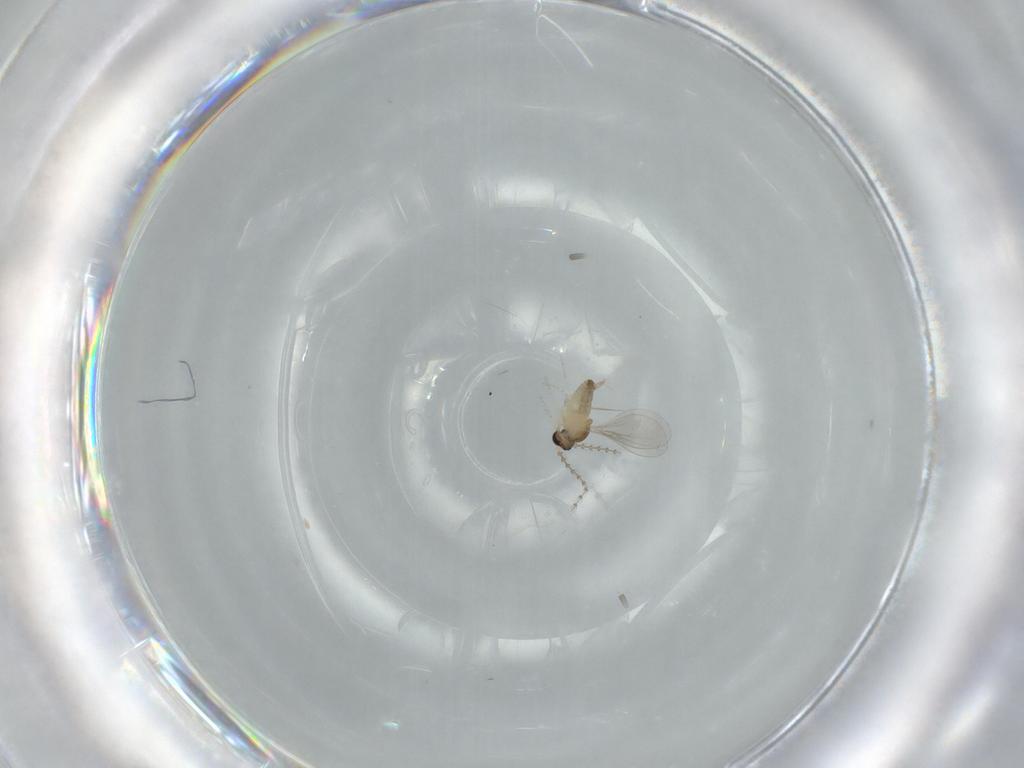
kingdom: Animalia
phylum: Arthropoda
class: Insecta
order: Diptera
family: Cecidomyiidae
